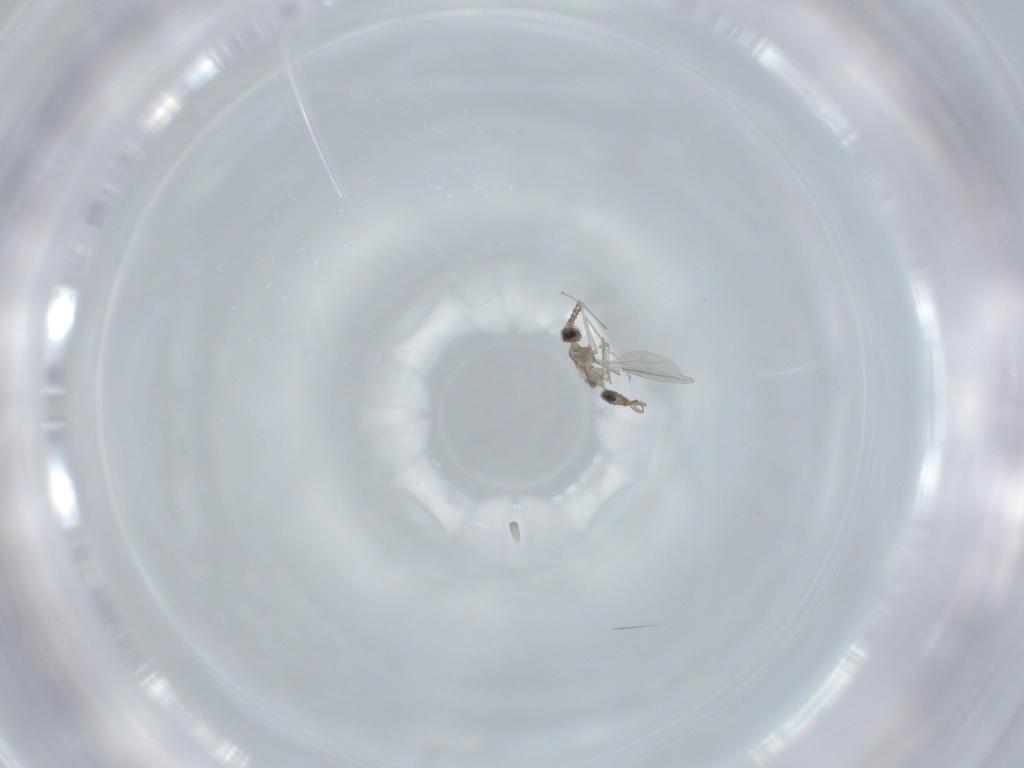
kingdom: Animalia
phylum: Arthropoda
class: Insecta
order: Diptera
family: Cecidomyiidae
